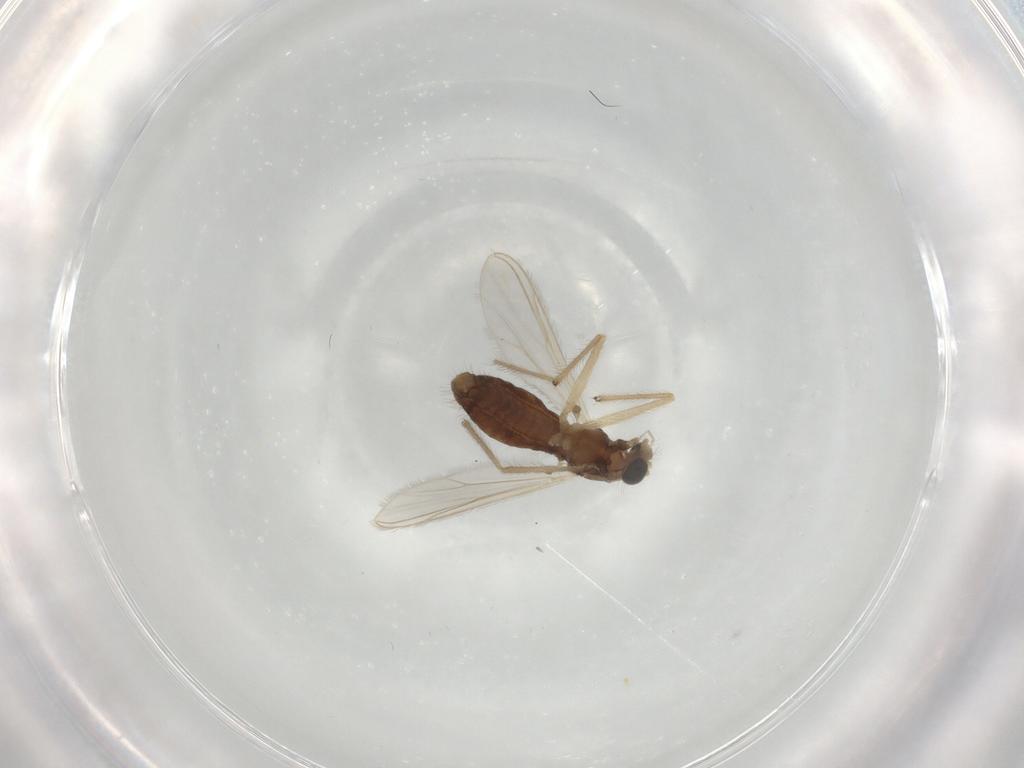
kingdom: Animalia
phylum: Arthropoda
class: Insecta
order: Diptera
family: Chironomidae
